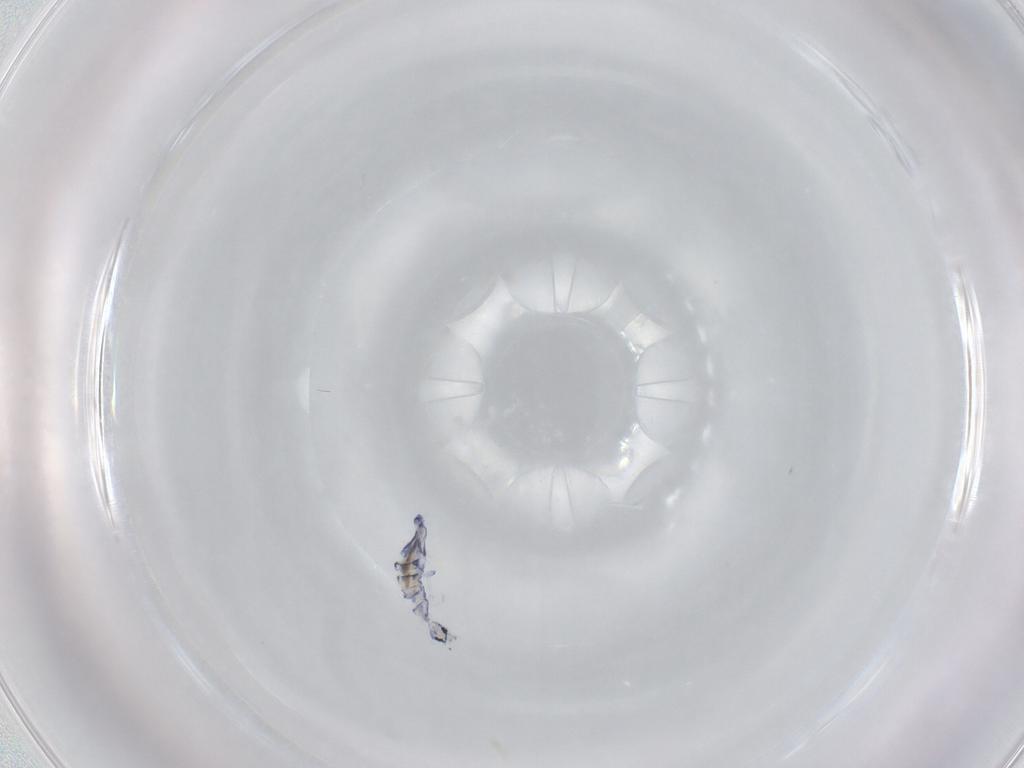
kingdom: Animalia
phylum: Arthropoda
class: Collembola
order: Entomobryomorpha
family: Entomobryidae
